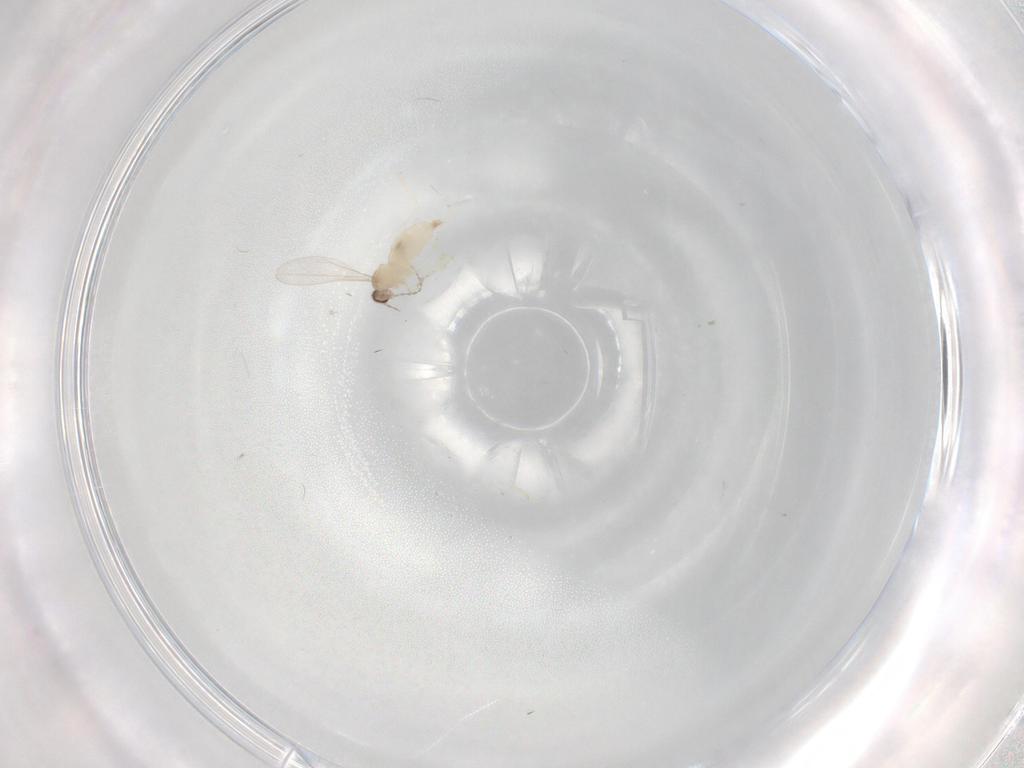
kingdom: Animalia
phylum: Arthropoda
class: Insecta
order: Diptera
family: Cecidomyiidae
